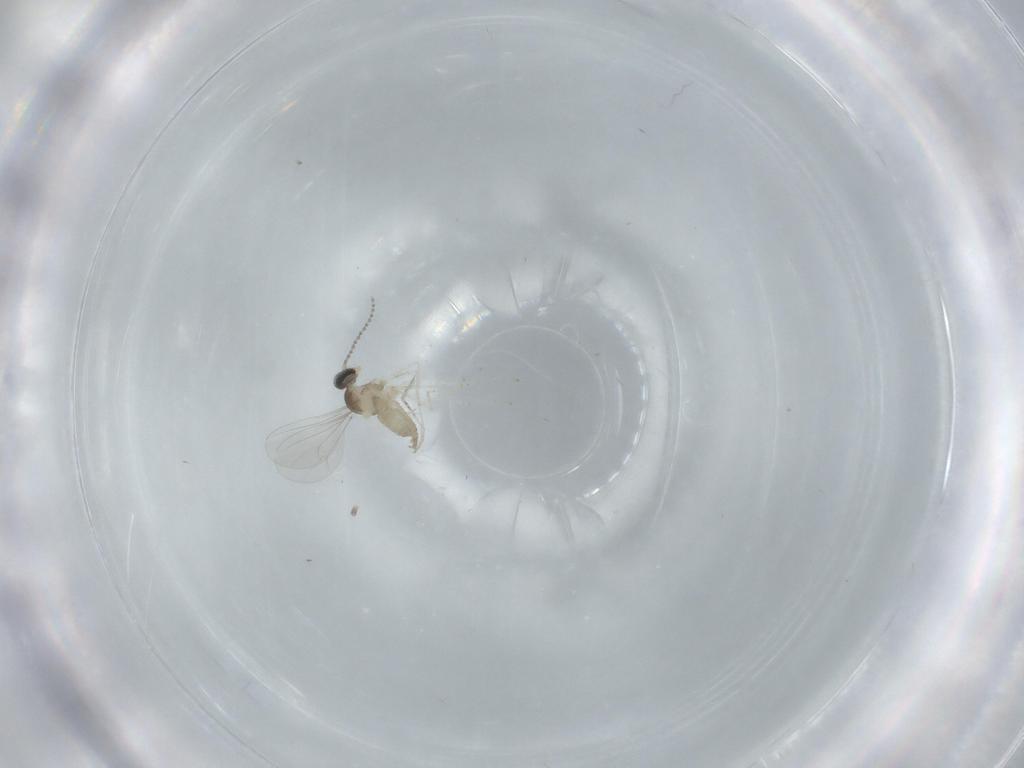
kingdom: Animalia
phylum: Arthropoda
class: Insecta
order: Diptera
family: Cecidomyiidae
